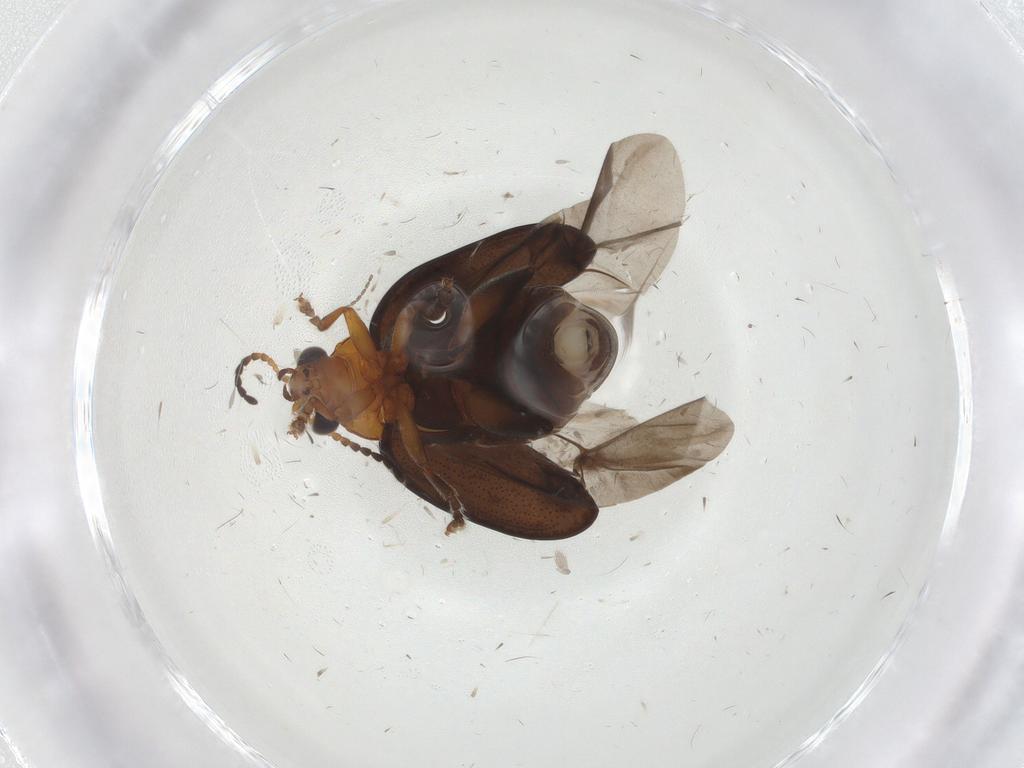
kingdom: Animalia
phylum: Arthropoda
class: Insecta
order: Coleoptera
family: Chrysomelidae
